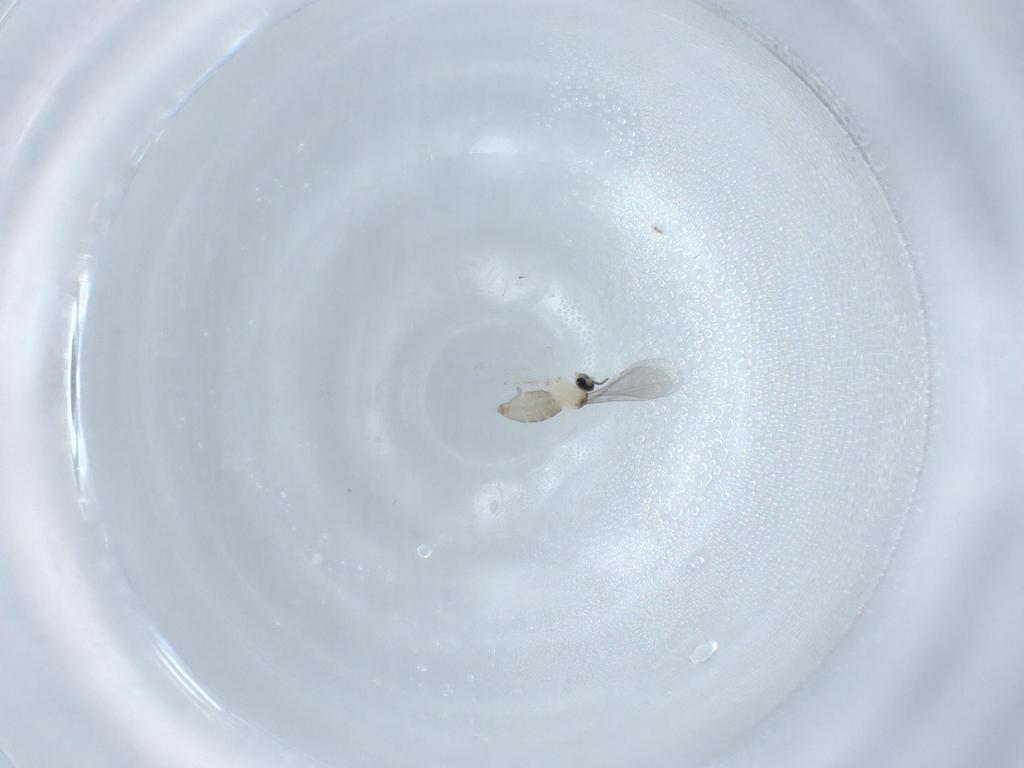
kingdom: Animalia
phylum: Arthropoda
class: Insecta
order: Diptera
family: Cecidomyiidae
